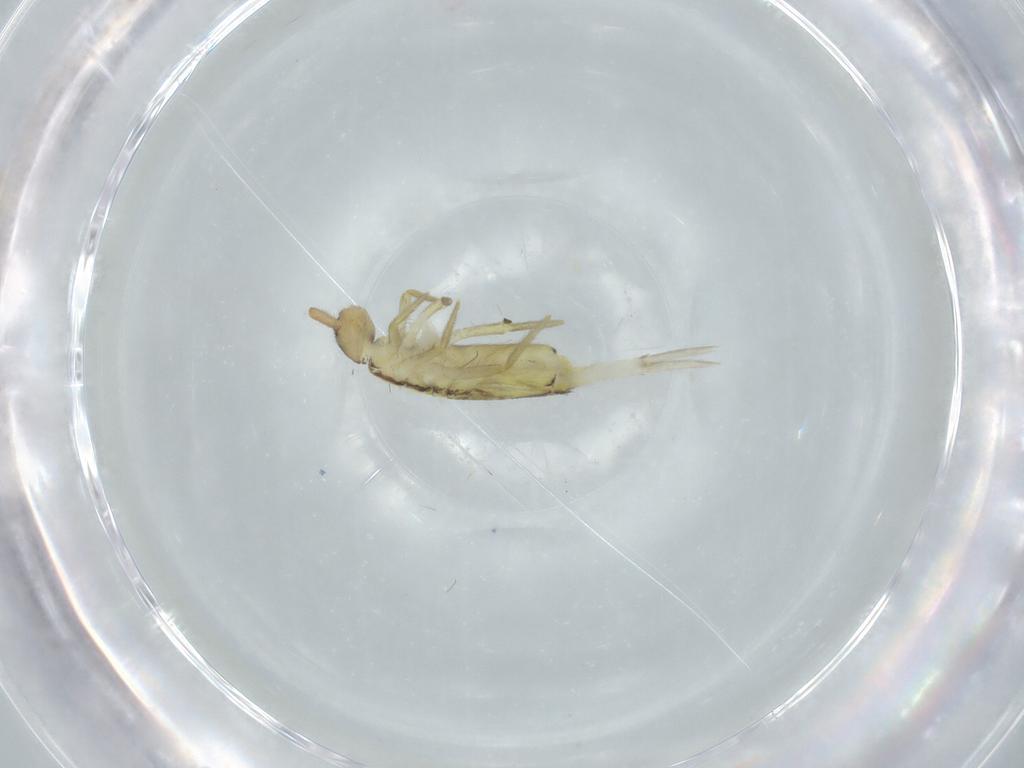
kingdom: Animalia
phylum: Arthropoda
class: Collembola
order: Entomobryomorpha
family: Entomobryidae
